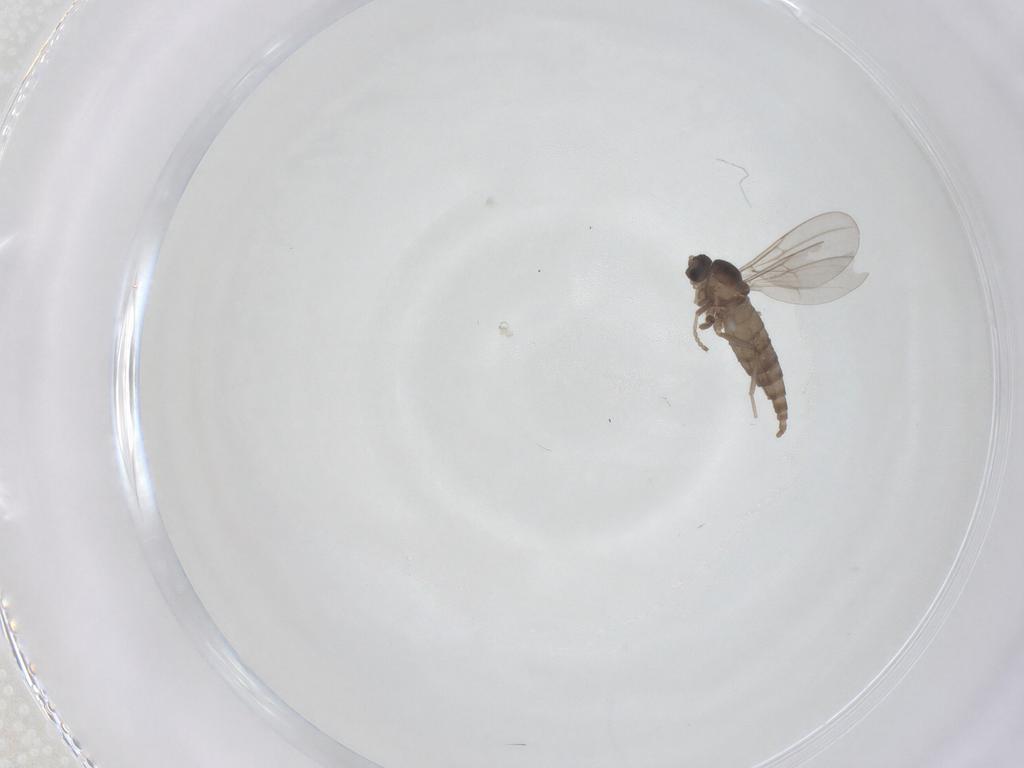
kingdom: Animalia
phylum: Arthropoda
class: Insecta
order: Diptera
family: Cecidomyiidae
